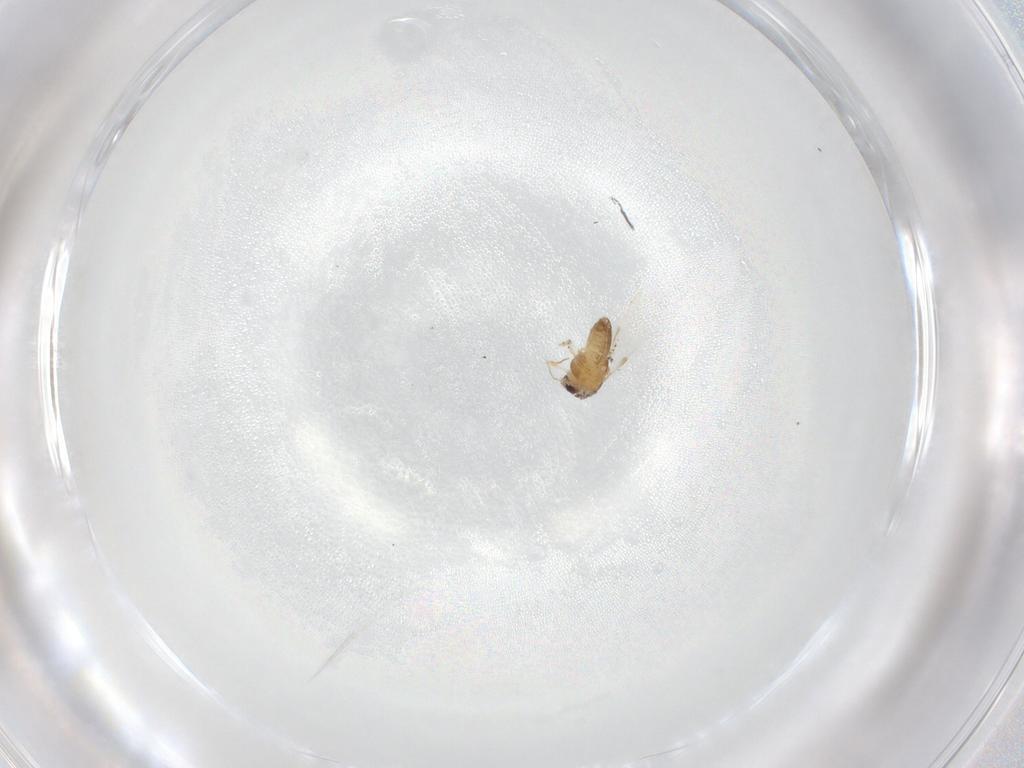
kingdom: Animalia
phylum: Arthropoda
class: Insecta
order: Diptera
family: Chironomidae
